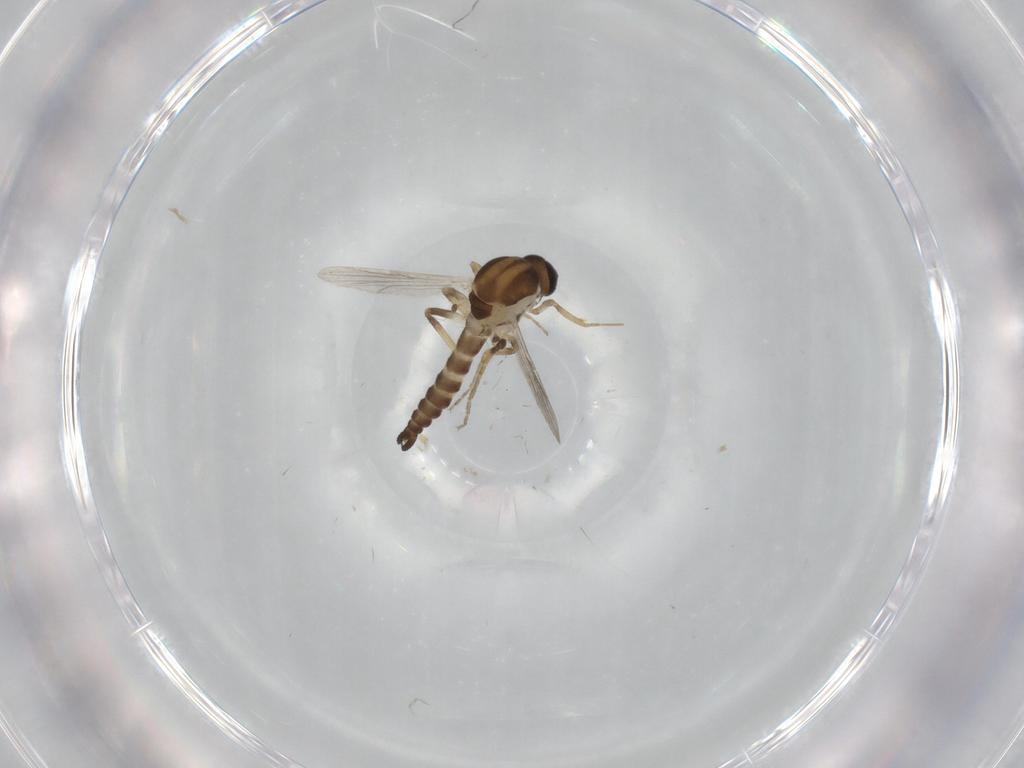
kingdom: Animalia
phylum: Arthropoda
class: Insecta
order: Diptera
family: Ceratopogonidae
